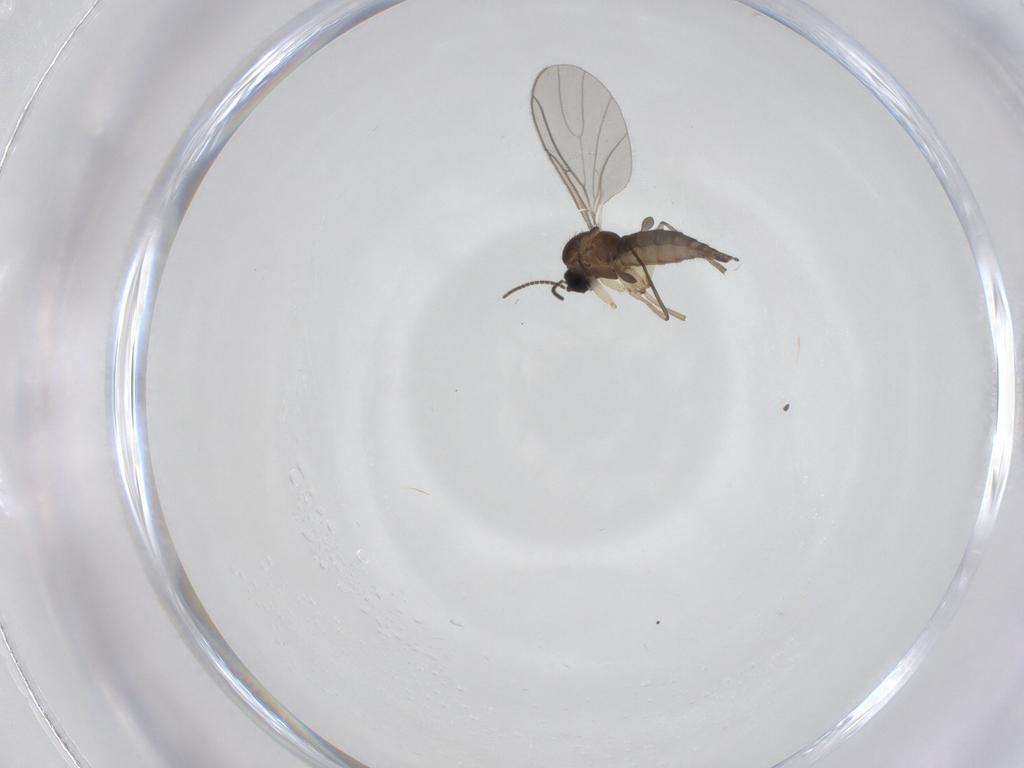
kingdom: Animalia
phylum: Arthropoda
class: Insecta
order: Diptera
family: Sciaridae
